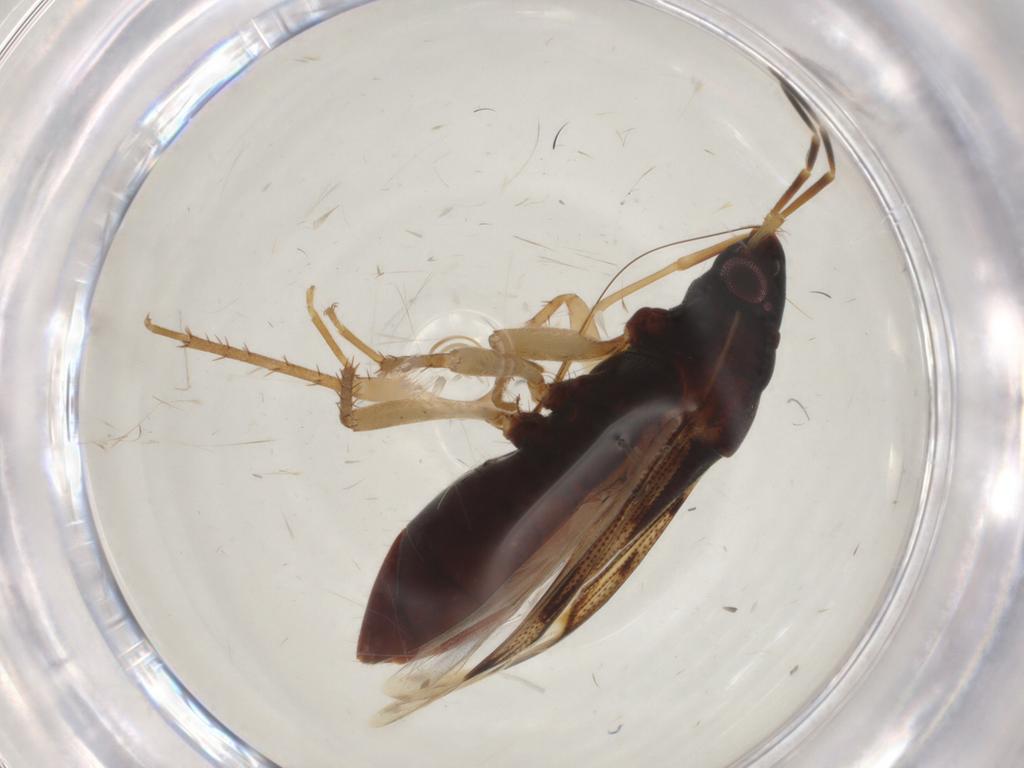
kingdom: Animalia
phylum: Arthropoda
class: Insecta
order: Hemiptera
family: Rhyparochromidae
